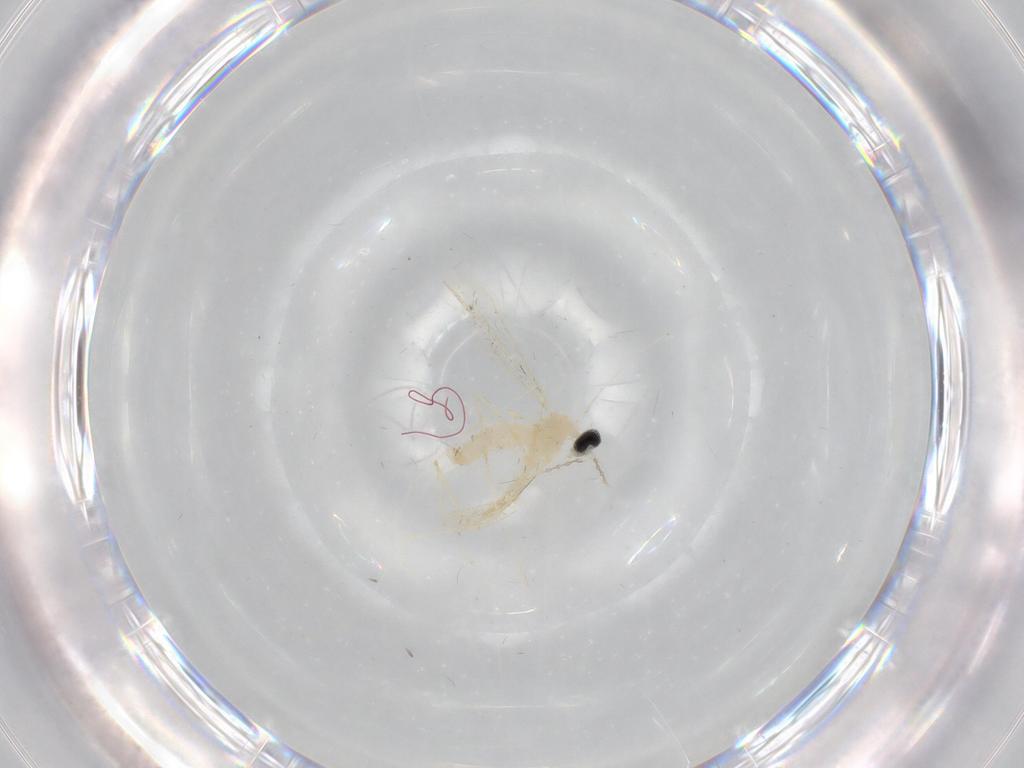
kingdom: Animalia
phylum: Arthropoda
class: Insecta
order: Diptera
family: Cecidomyiidae
